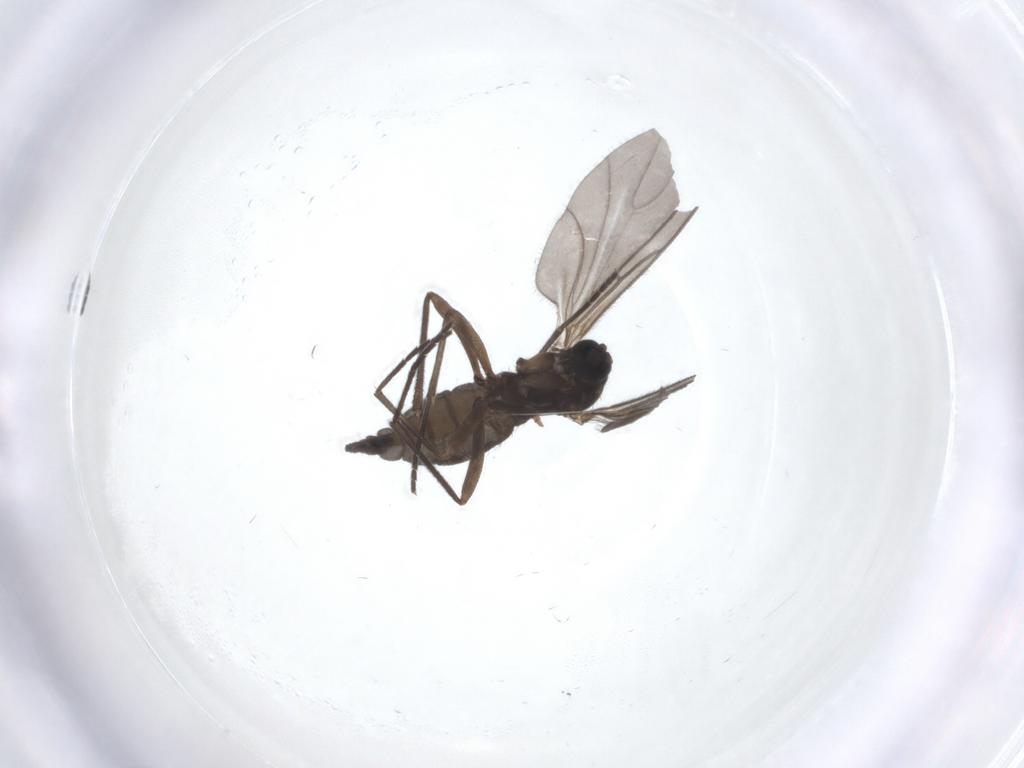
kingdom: Animalia
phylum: Arthropoda
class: Insecta
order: Diptera
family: Sciaridae
